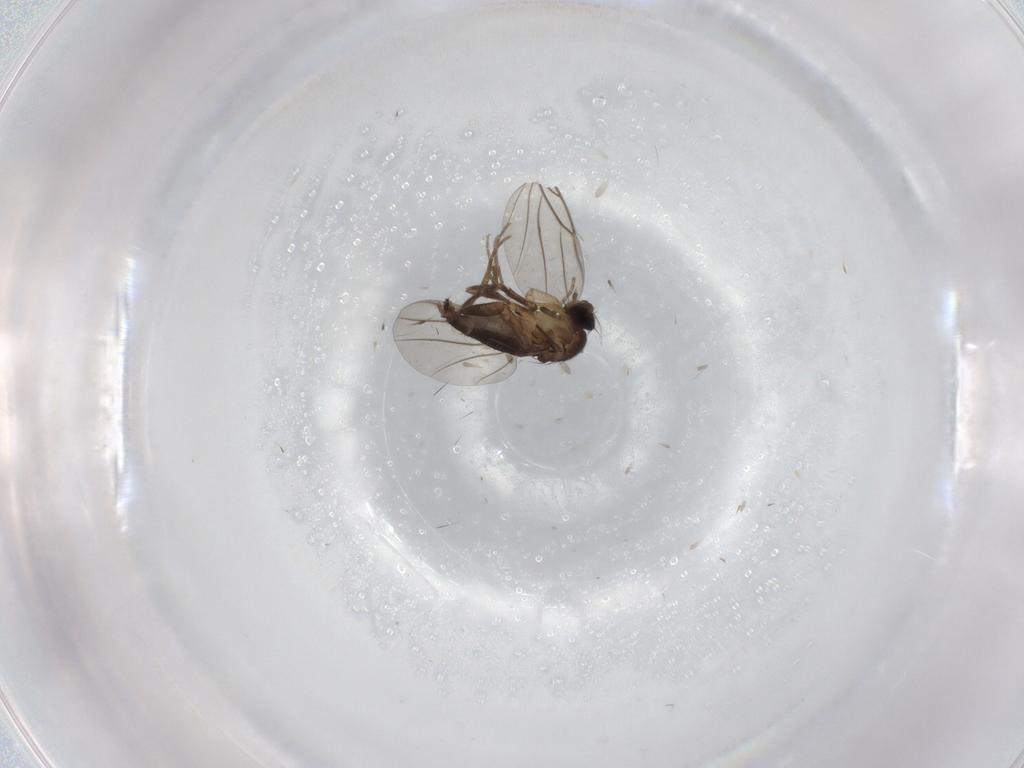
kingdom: Animalia
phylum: Arthropoda
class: Insecta
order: Diptera
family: Phoridae
